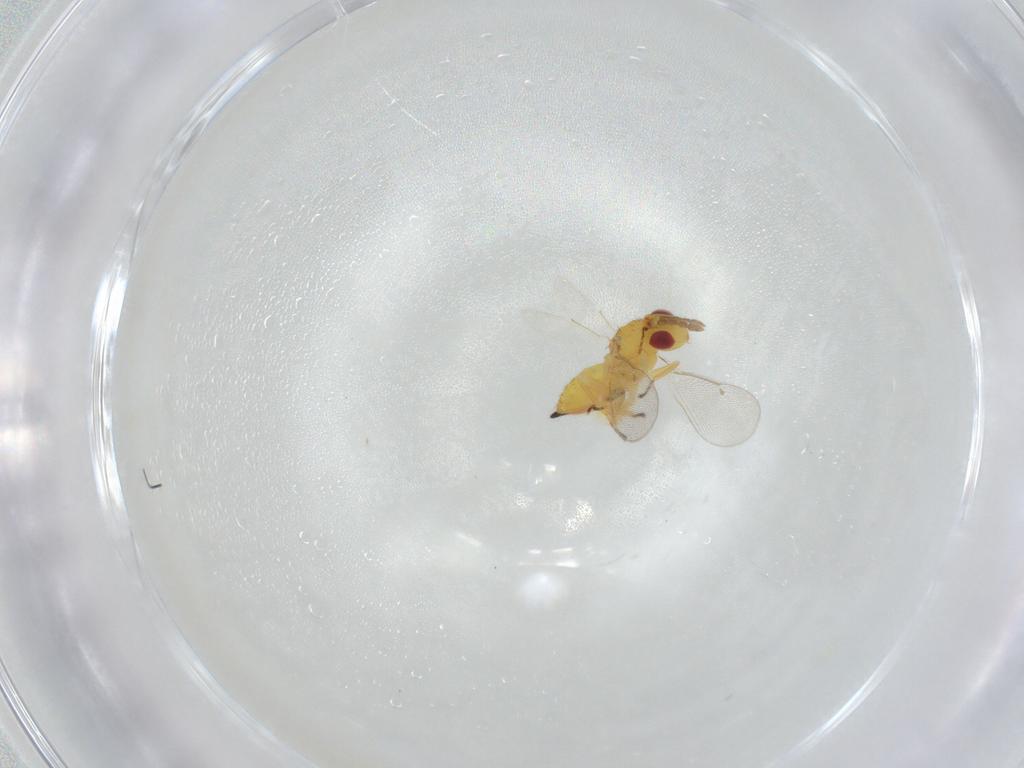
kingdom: Animalia
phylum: Arthropoda
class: Insecta
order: Hymenoptera
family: Eulophidae
